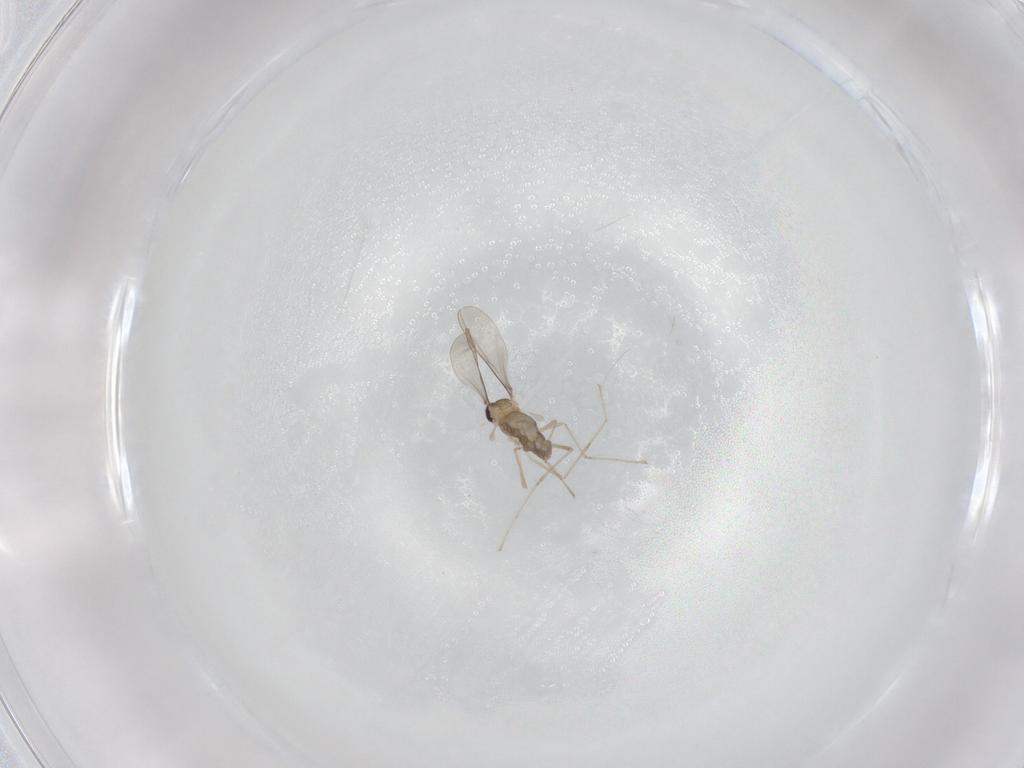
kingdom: Animalia
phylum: Arthropoda
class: Insecta
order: Diptera
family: Cecidomyiidae
